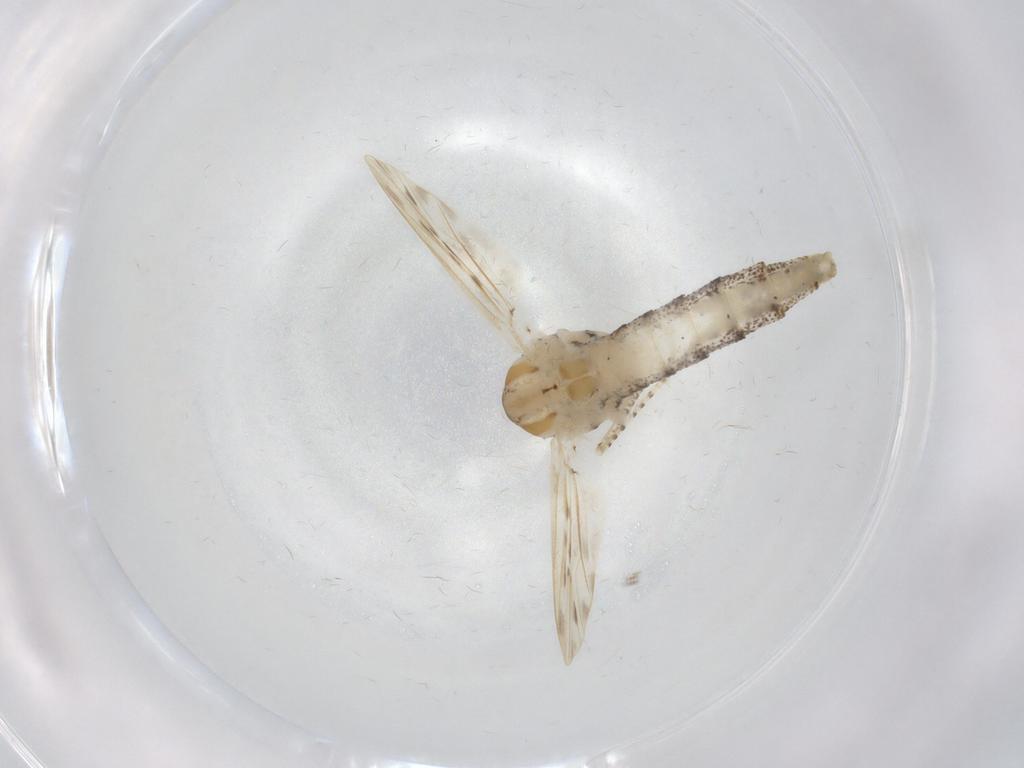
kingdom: Animalia
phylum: Arthropoda
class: Insecta
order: Diptera
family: Chaoboridae
